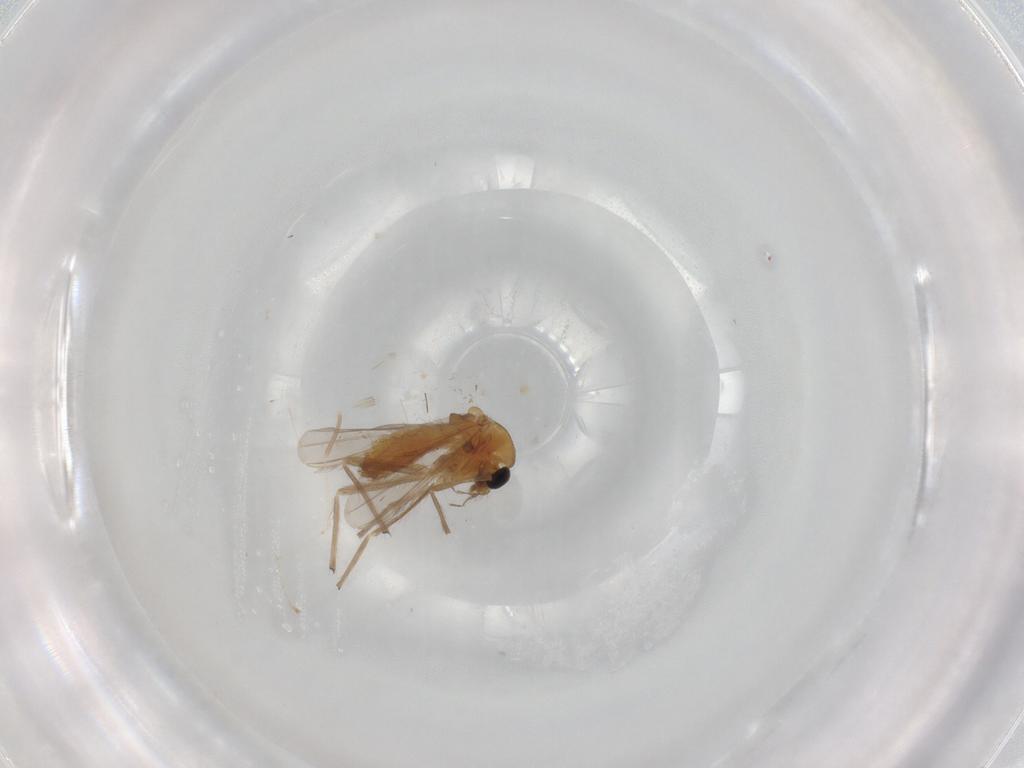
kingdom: Animalia
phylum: Arthropoda
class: Insecta
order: Diptera
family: Chironomidae
